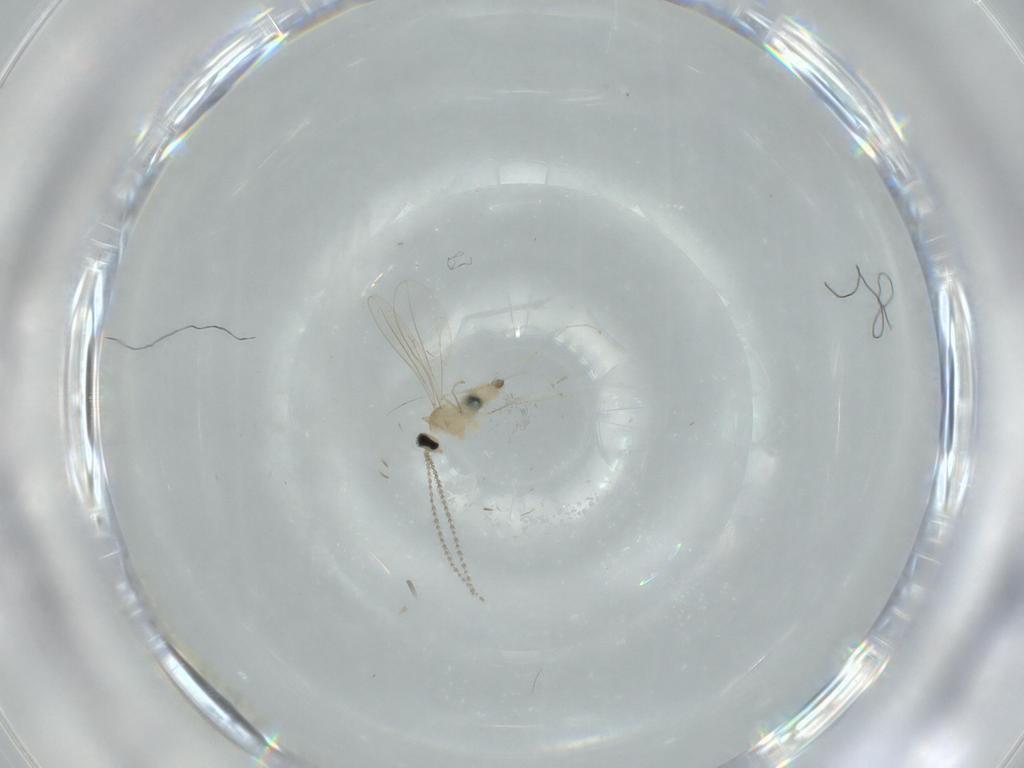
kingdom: Animalia
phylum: Arthropoda
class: Insecta
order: Diptera
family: Cecidomyiidae
